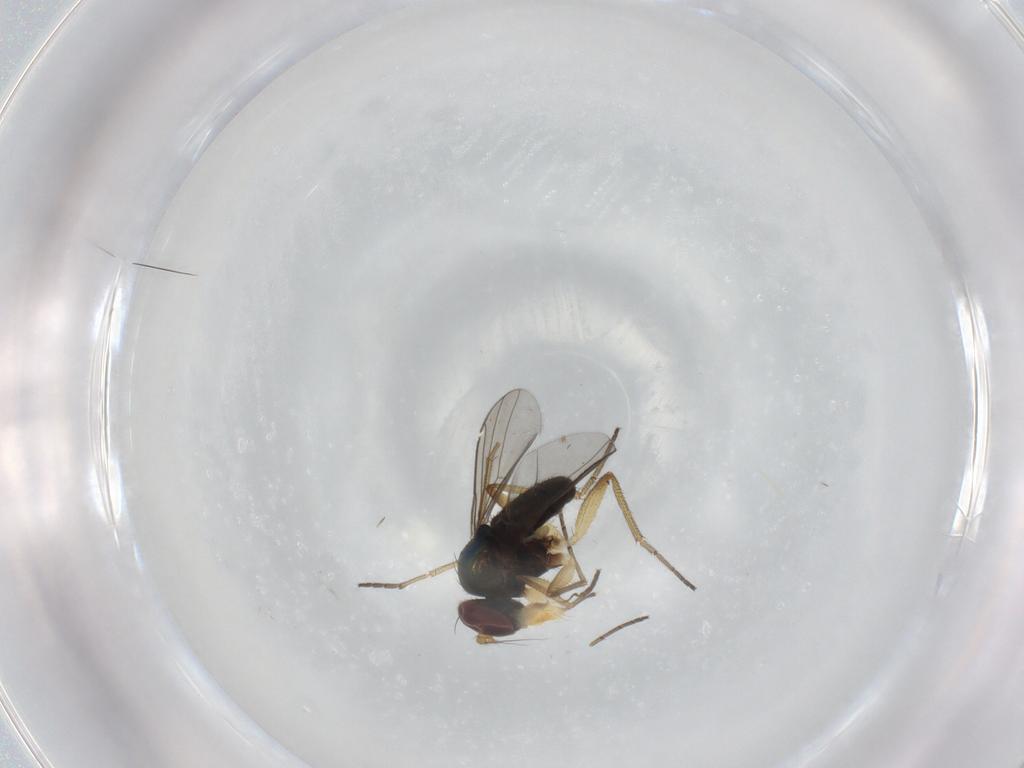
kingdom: Animalia
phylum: Arthropoda
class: Insecta
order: Diptera
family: Dolichopodidae
